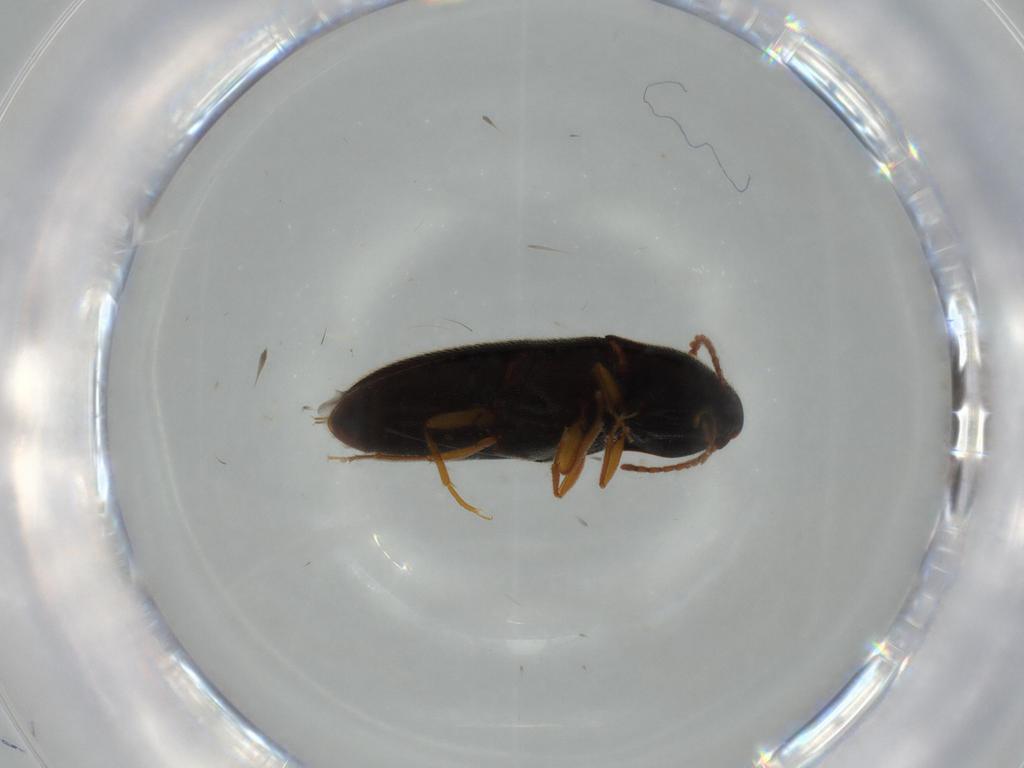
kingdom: Animalia
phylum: Arthropoda
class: Insecta
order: Coleoptera
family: Elateridae
